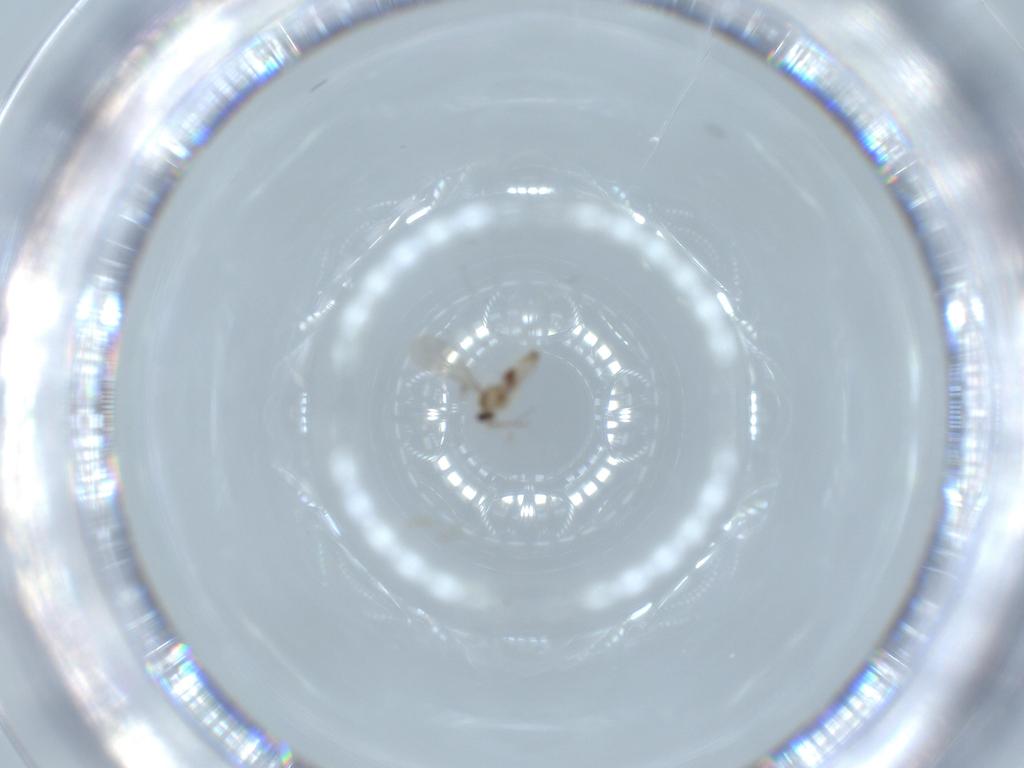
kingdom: Animalia
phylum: Arthropoda
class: Insecta
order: Diptera
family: Cecidomyiidae
